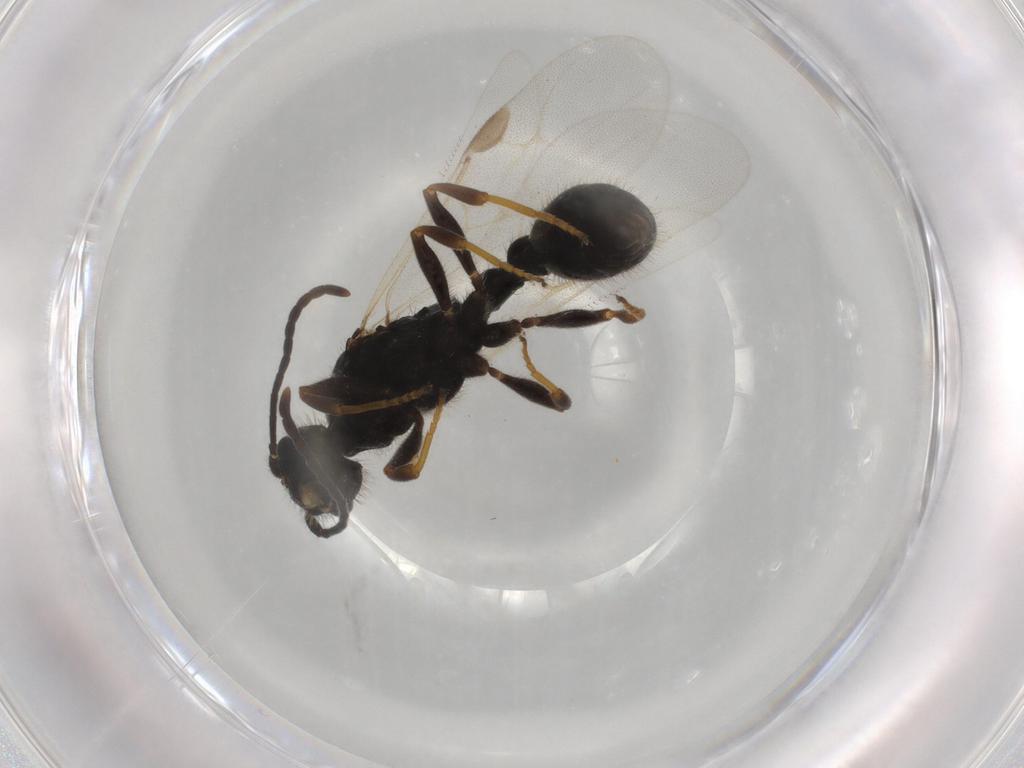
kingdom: Animalia
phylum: Arthropoda
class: Insecta
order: Hymenoptera
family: Formicidae
